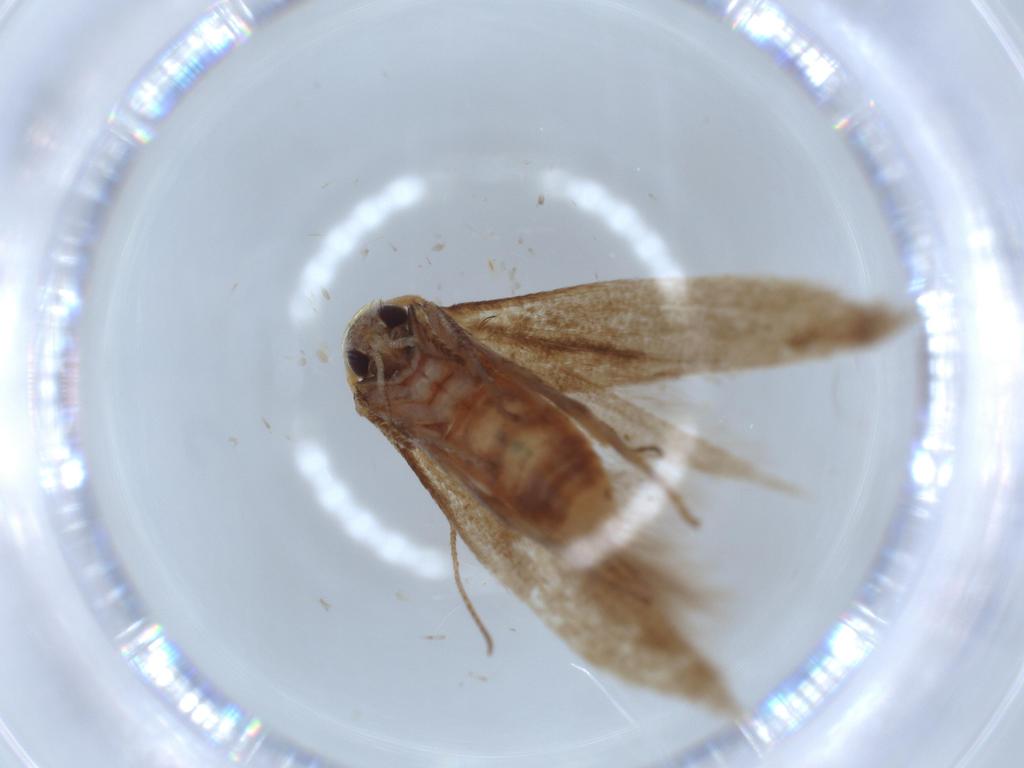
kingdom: Animalia
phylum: Arthropoda
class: Insecta
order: Lepidoptera
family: Stathmopodidae
